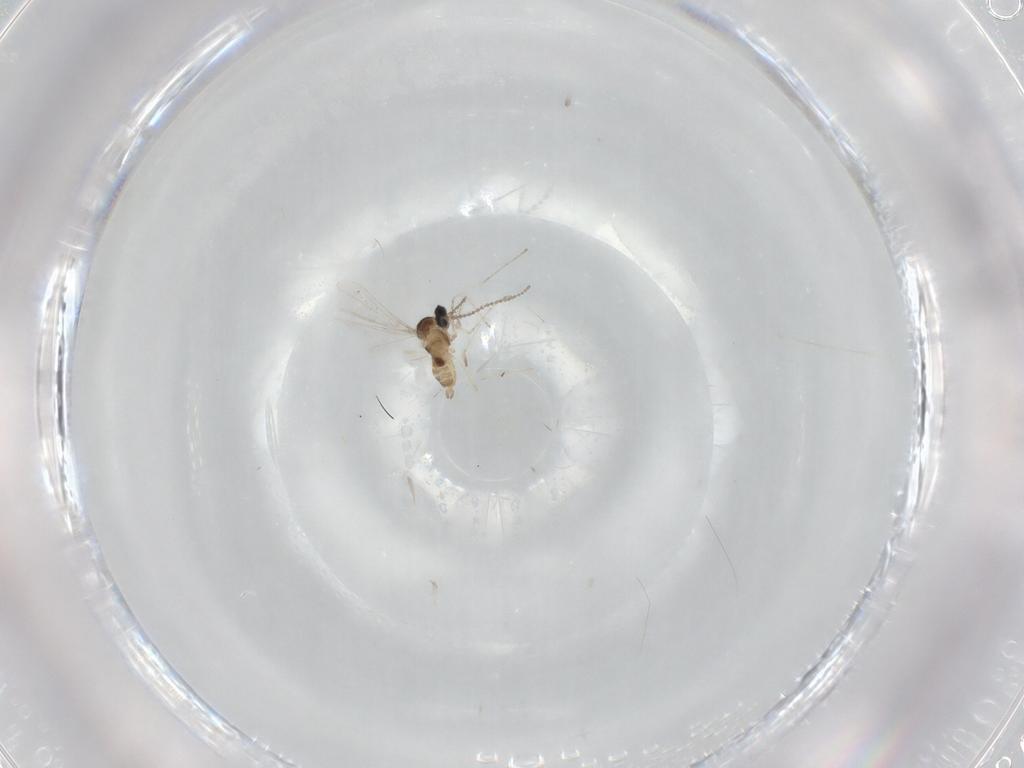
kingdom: Animalia
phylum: Arthropoda
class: Insecta
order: Diptera
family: Cecidomyiidae
